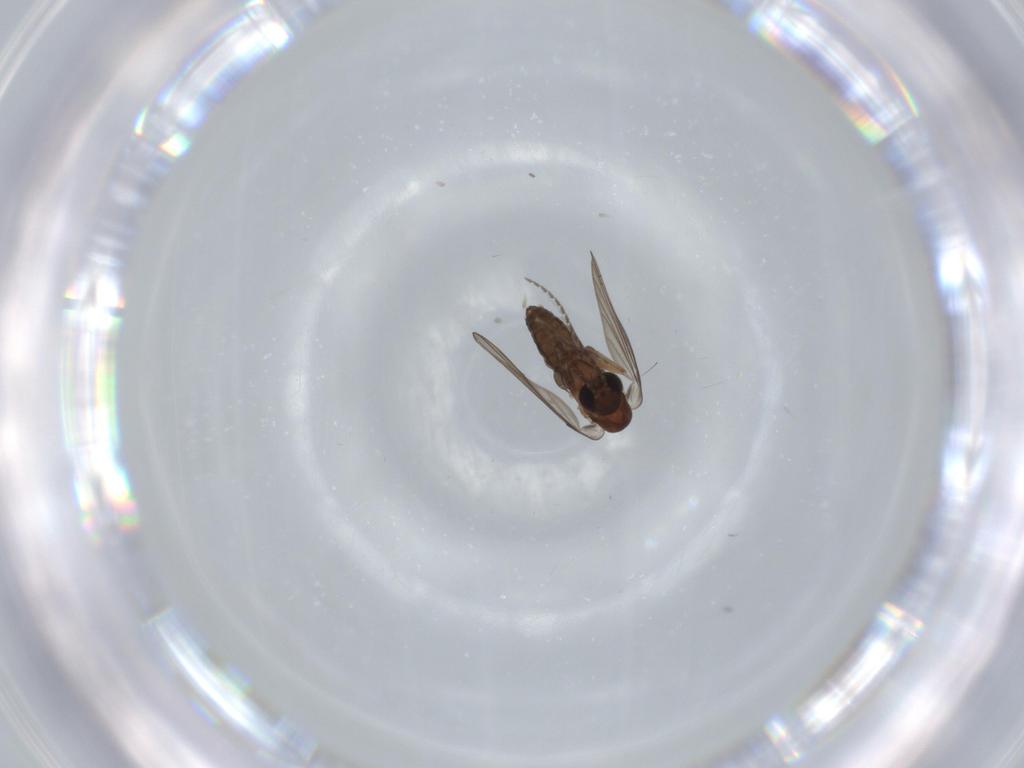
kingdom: Animalia
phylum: Arthropoda
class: Insecta
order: Diptera
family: Psychodidae
